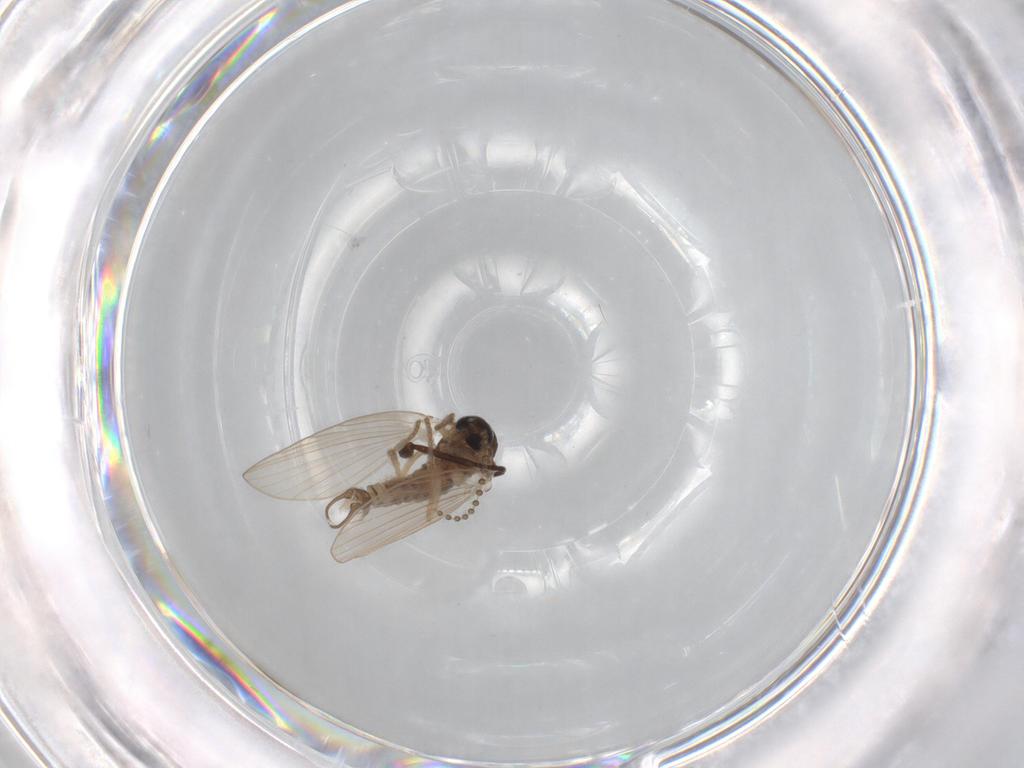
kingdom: Animalia
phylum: Arthropoda
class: Insecta
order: Diptera
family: Psychodidae
